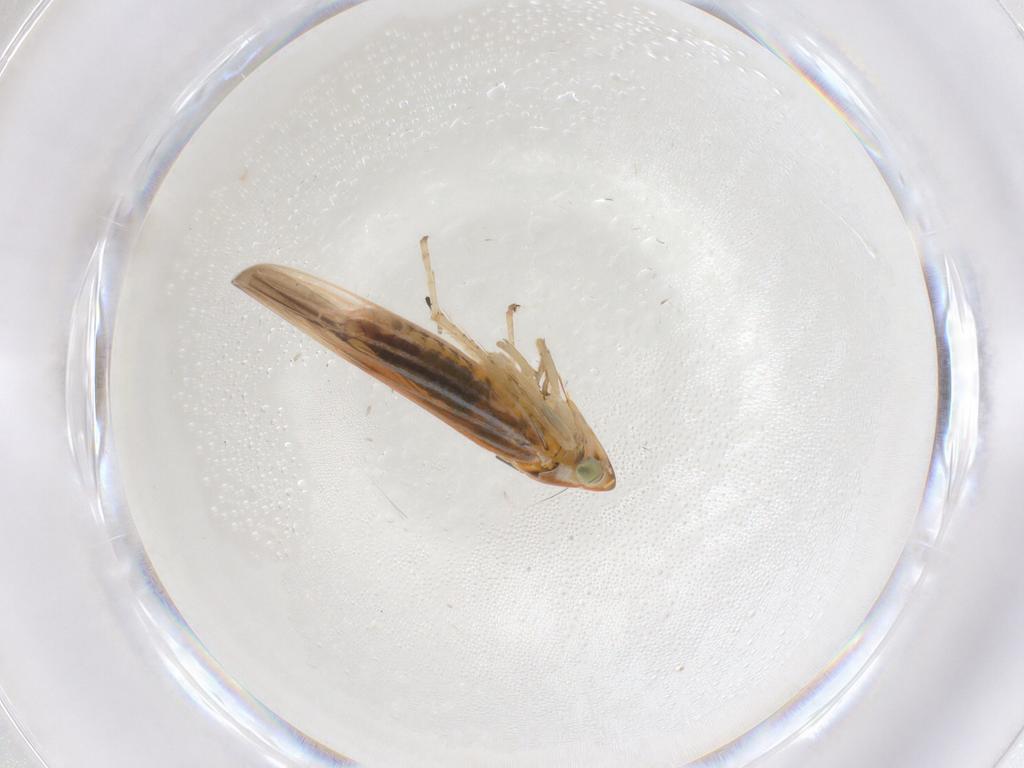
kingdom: Animalia
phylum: Arthropoda
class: Insecta
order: Hemiptera
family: Cicadellidae
